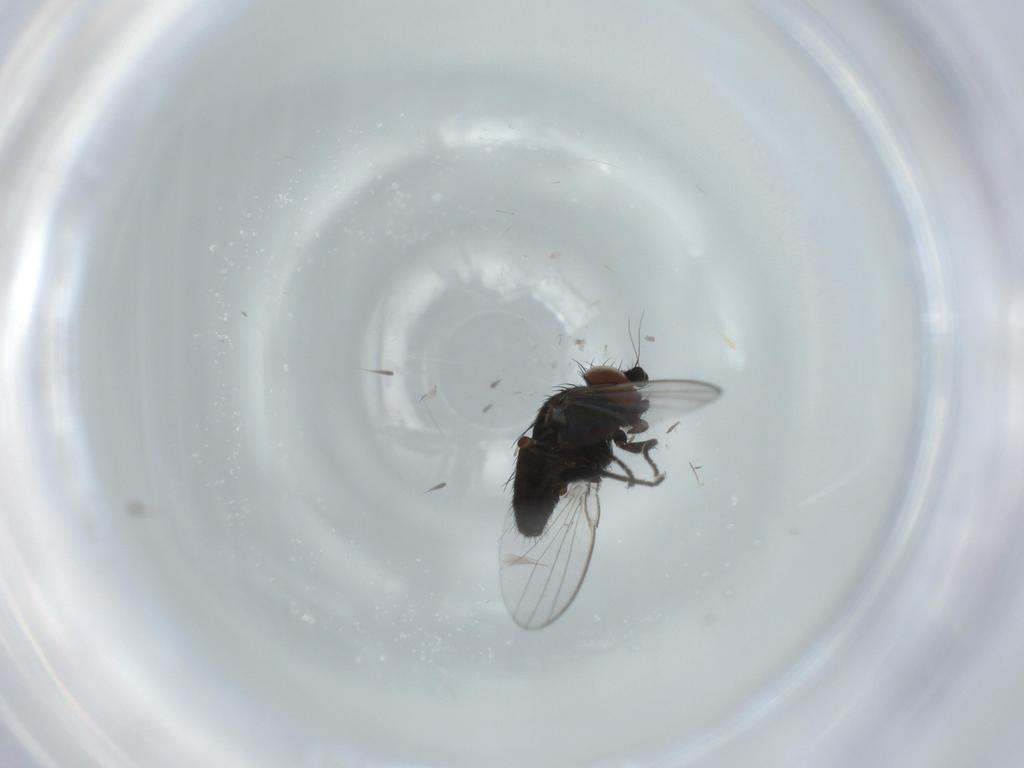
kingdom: Animalia
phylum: Arthropoda
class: Insecta
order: Diptera
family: Milichiidae
